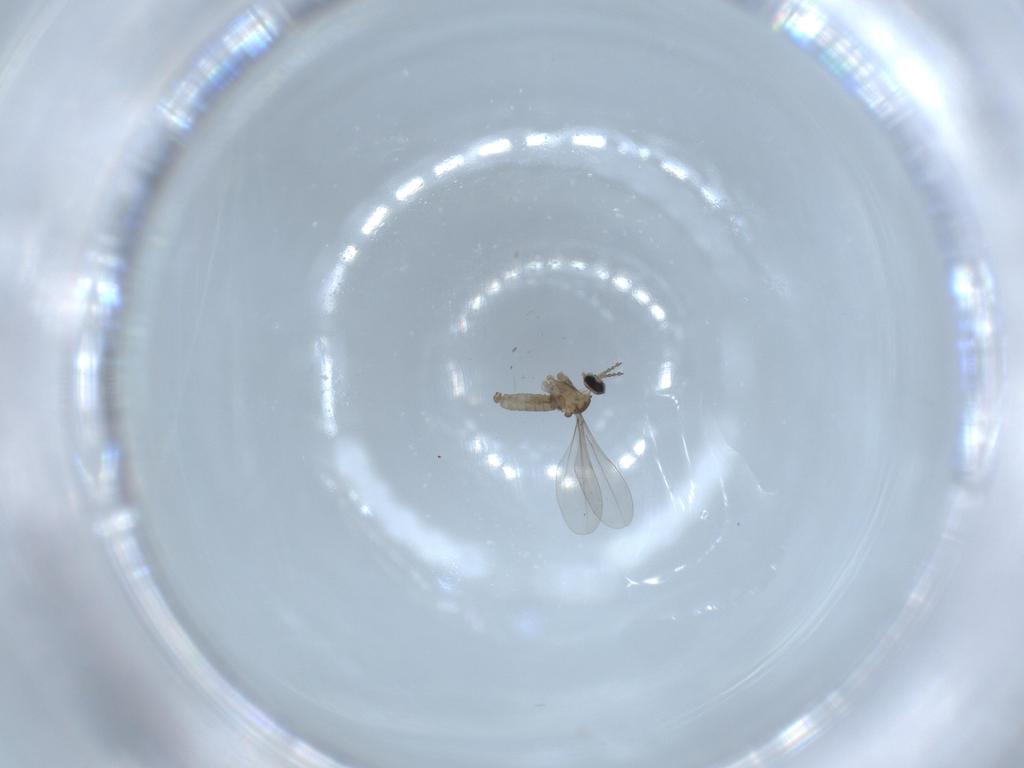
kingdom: Animalia
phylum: Arthropoda
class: Insecta
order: Diptera
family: Cecidomyiidae
